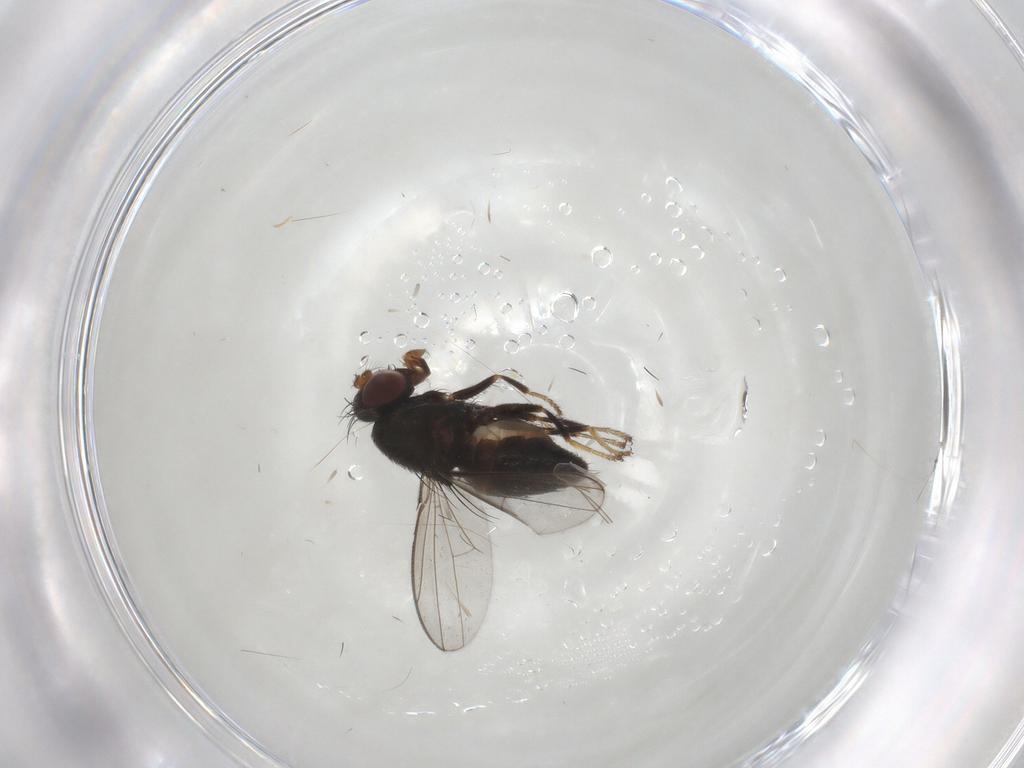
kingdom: Animalia
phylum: Arthropoda
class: Insecta
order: Diptera
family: Ephydridae
